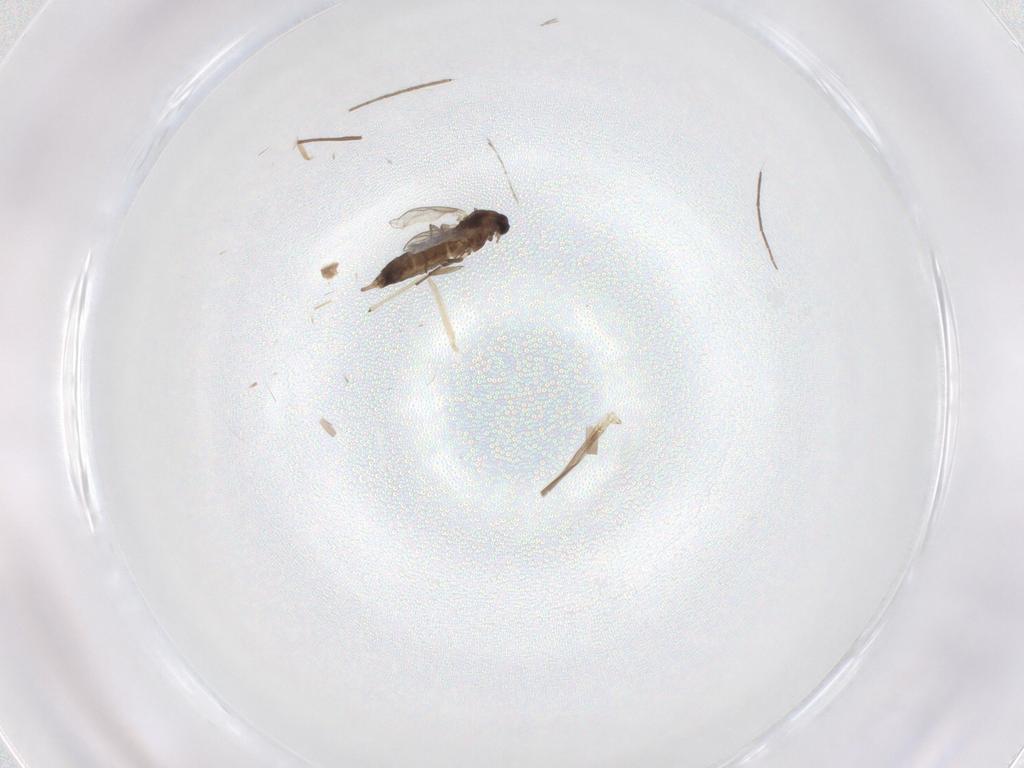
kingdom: Animalia
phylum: Arthropoda
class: Insecta
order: Diptera
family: Chironomidae
